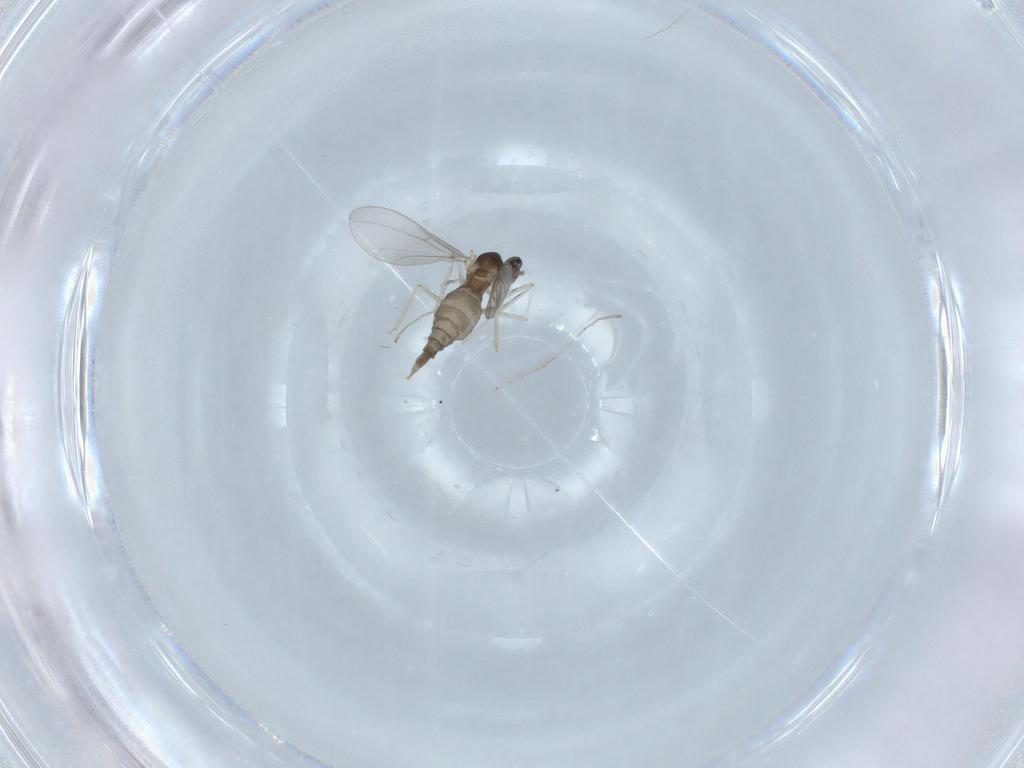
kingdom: Animalia
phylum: Arthropoda
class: Insecta
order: Diptera
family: Cecidomyiidae
